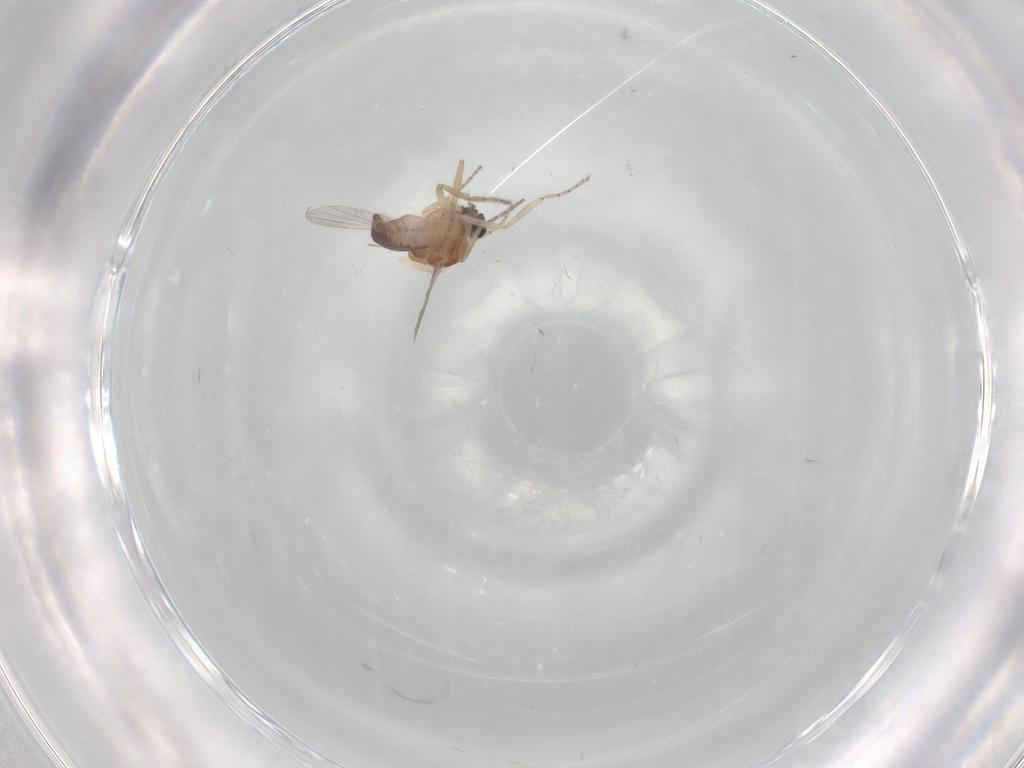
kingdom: Animalia
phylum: Arthropoda
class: Insecta
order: Diptera
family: Ceratopogonidae
